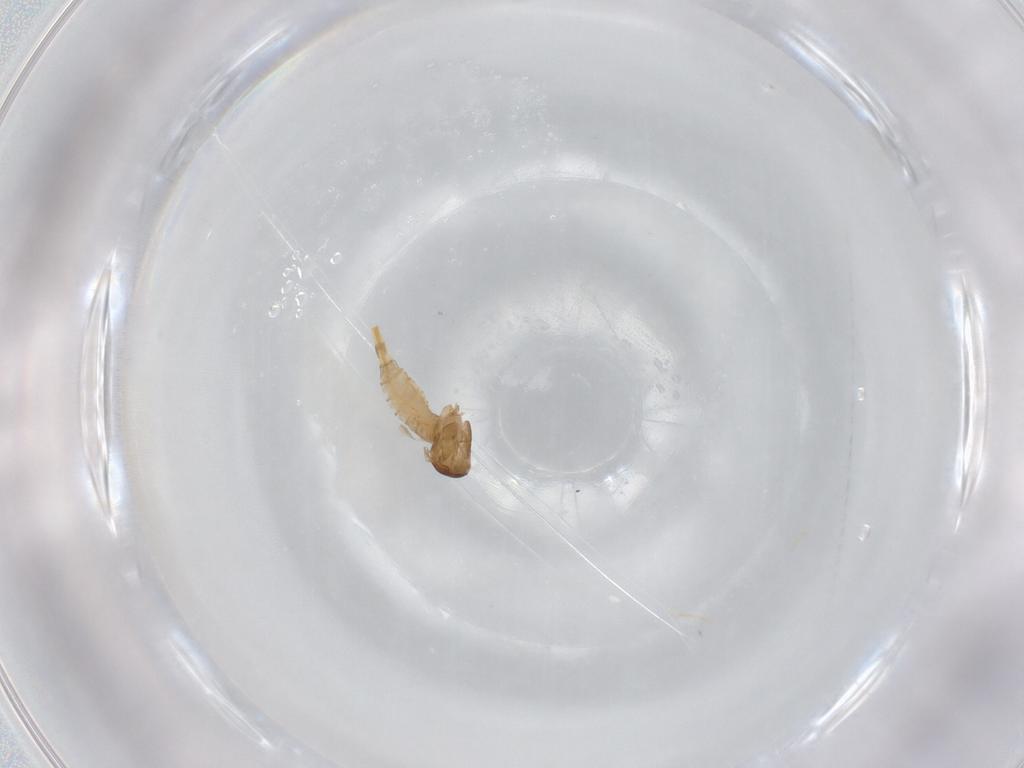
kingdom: Animalia
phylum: Arthropoda
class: Insecta
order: Diptera
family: Cecidomyiidae
